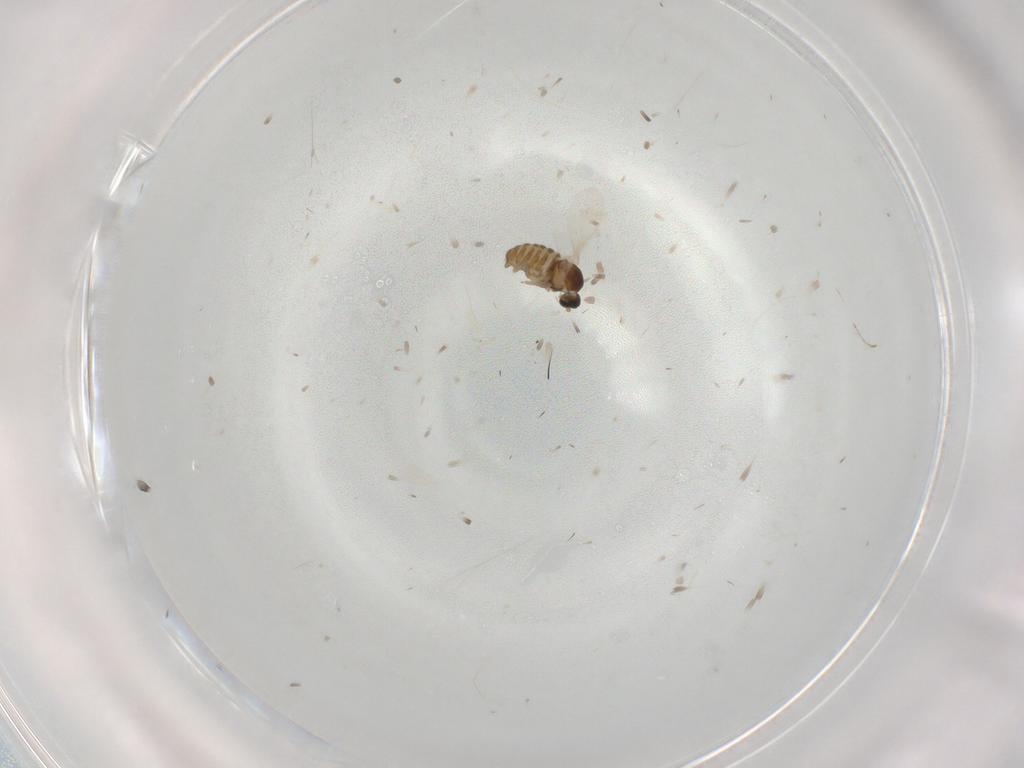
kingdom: Animalia
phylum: Arthropoda
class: Insecta
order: Diptera
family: Cecidomyiidae
